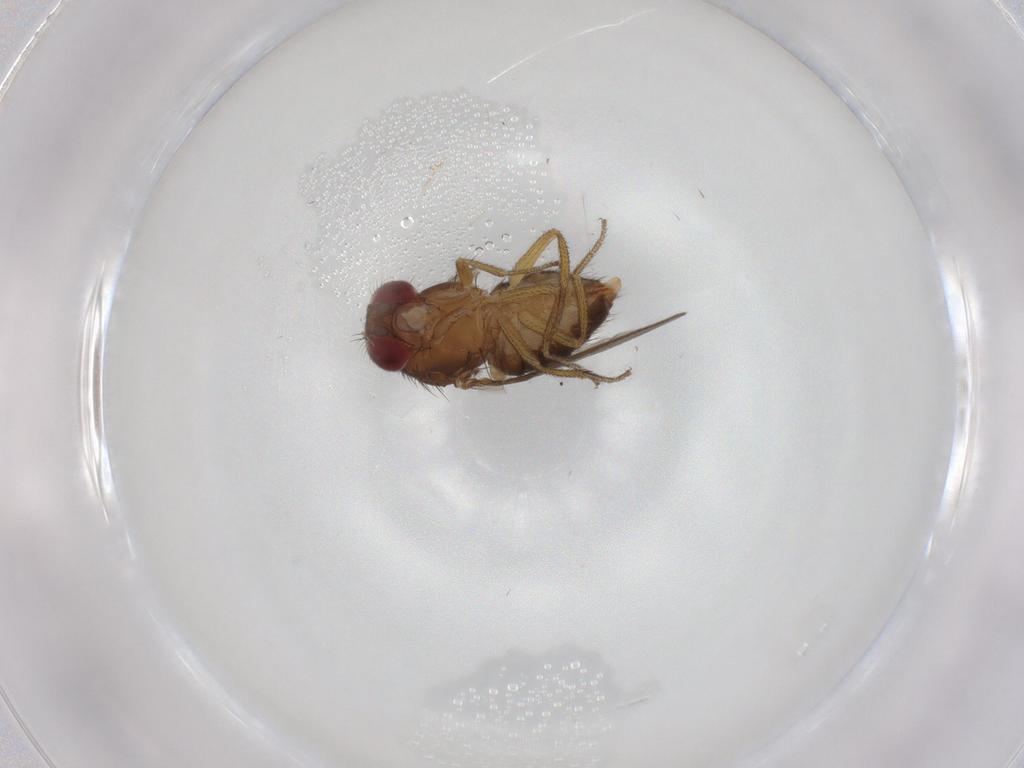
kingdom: Animalia
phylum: Arthropoda
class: Insecta
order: Diptera
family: Drosophilidae
